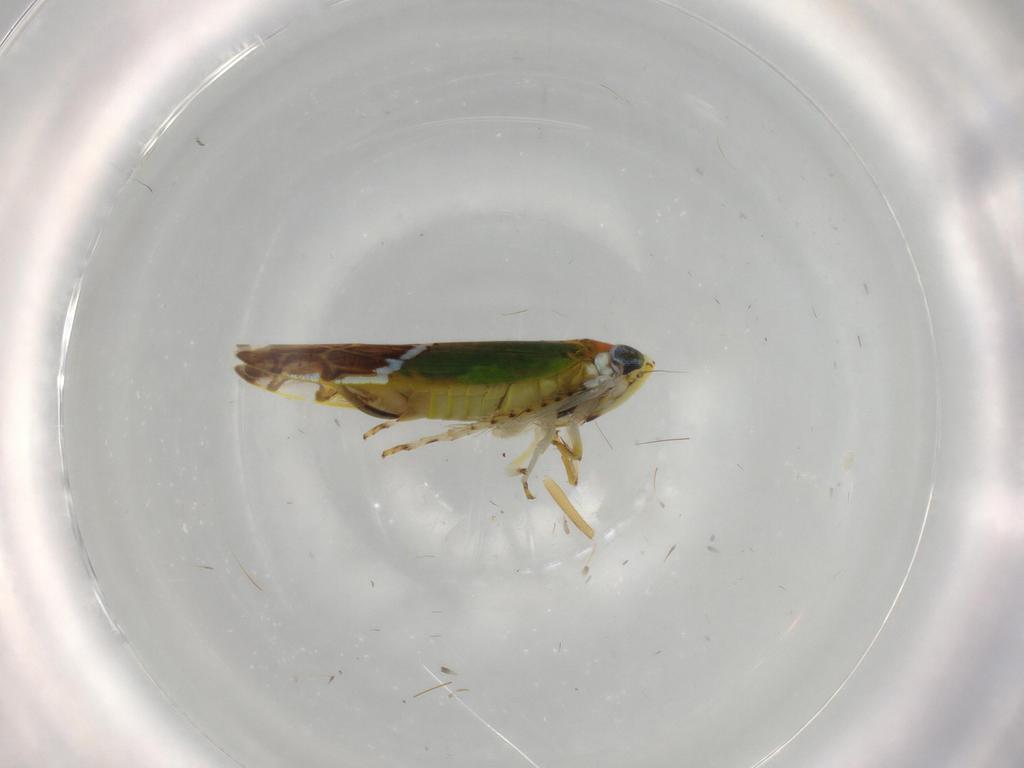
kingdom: Animalia
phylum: Arthropoda
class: Insecta
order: Hemiptera
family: Cicadellidae
